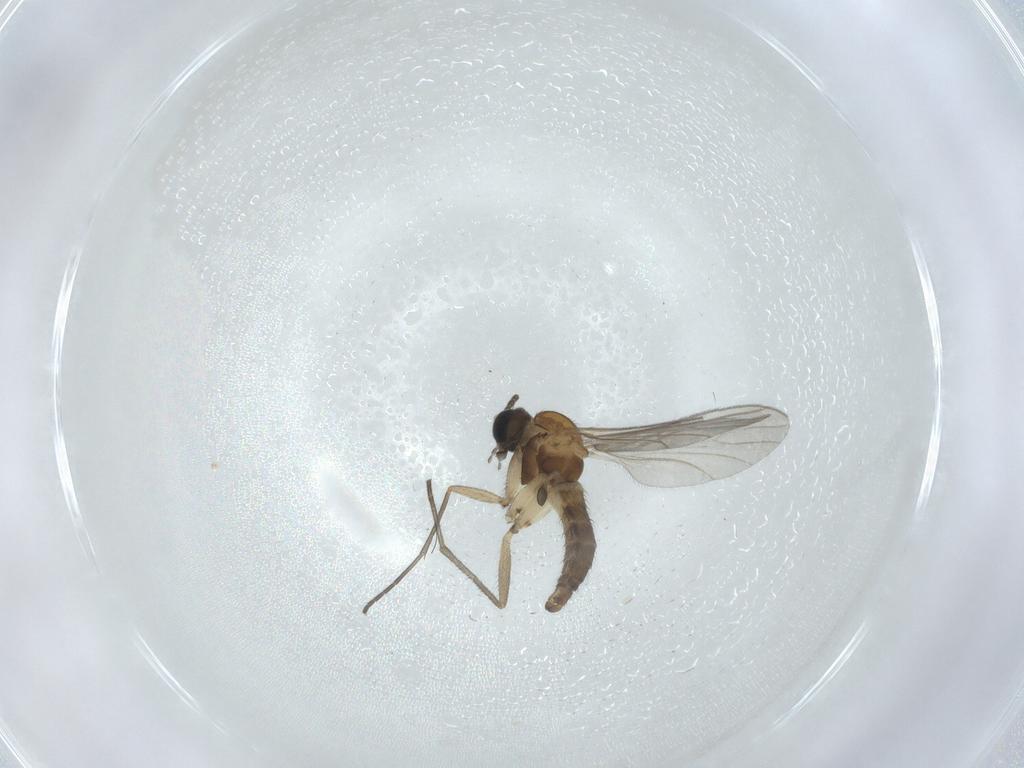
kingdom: Animalia
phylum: Arthropoda
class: Insecta
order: Diptera
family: Sciaridae
